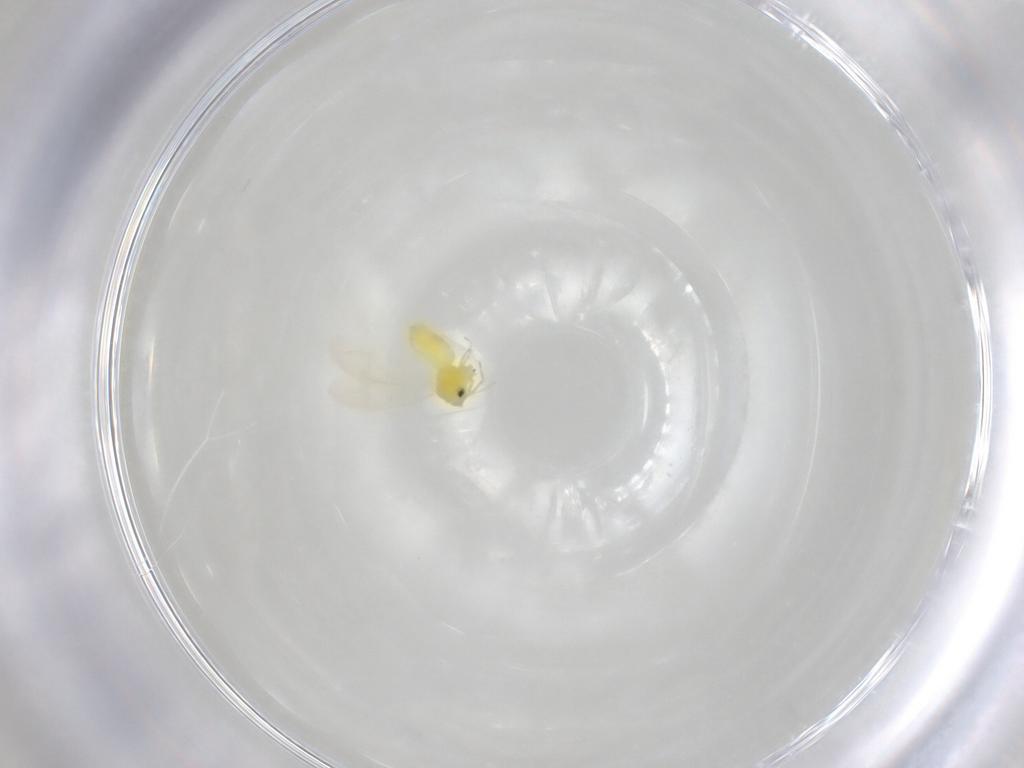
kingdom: Animalia
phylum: Arthropoda
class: Insecta
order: Hemiptera
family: Aleyrodidae
